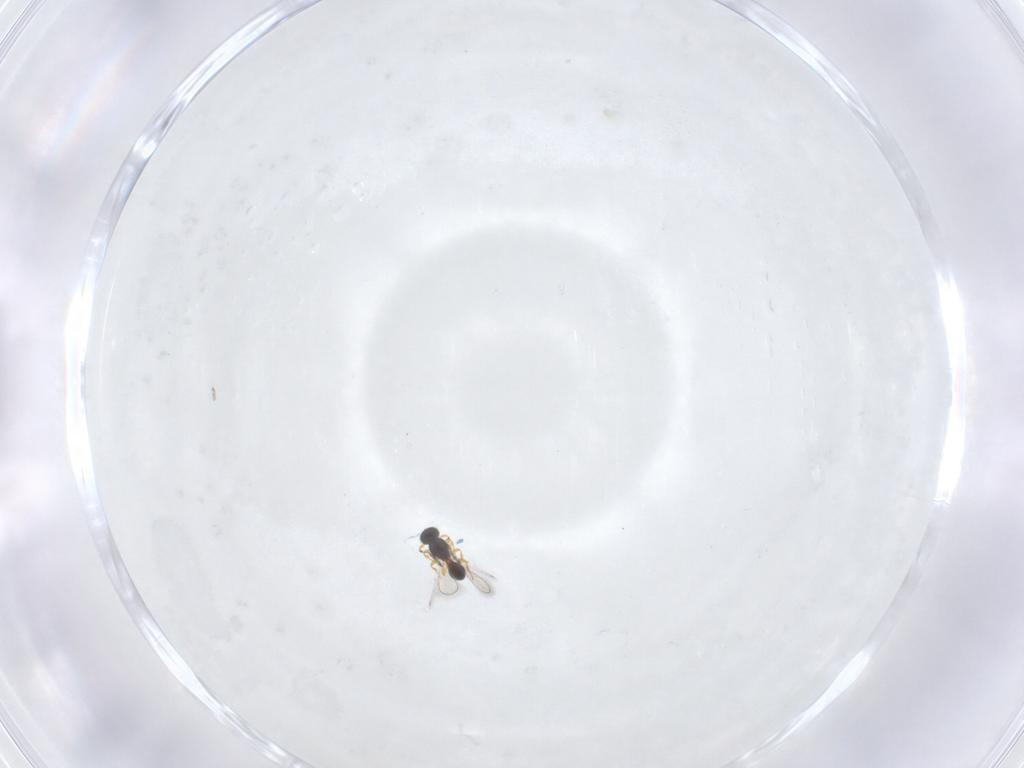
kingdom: Animalia
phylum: Arthropoda
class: Insecta
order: Hymenoptera
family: Platygastridae
